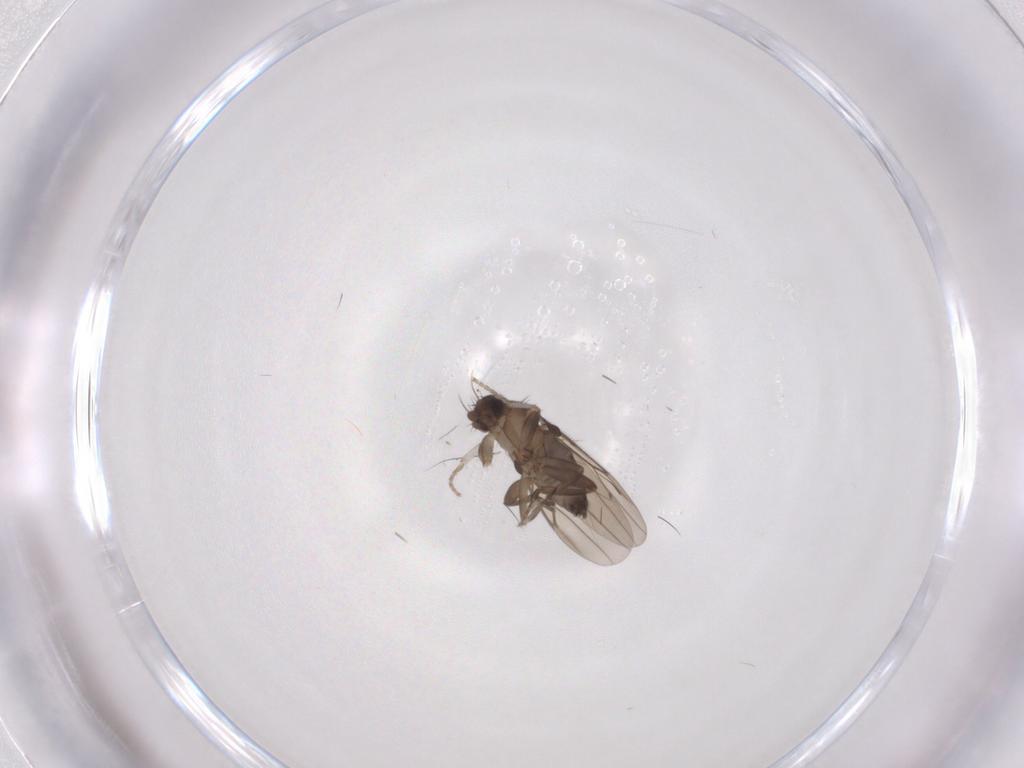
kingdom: Animalia
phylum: Arthropoda
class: Insecta
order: Diptera
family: Phoridae
